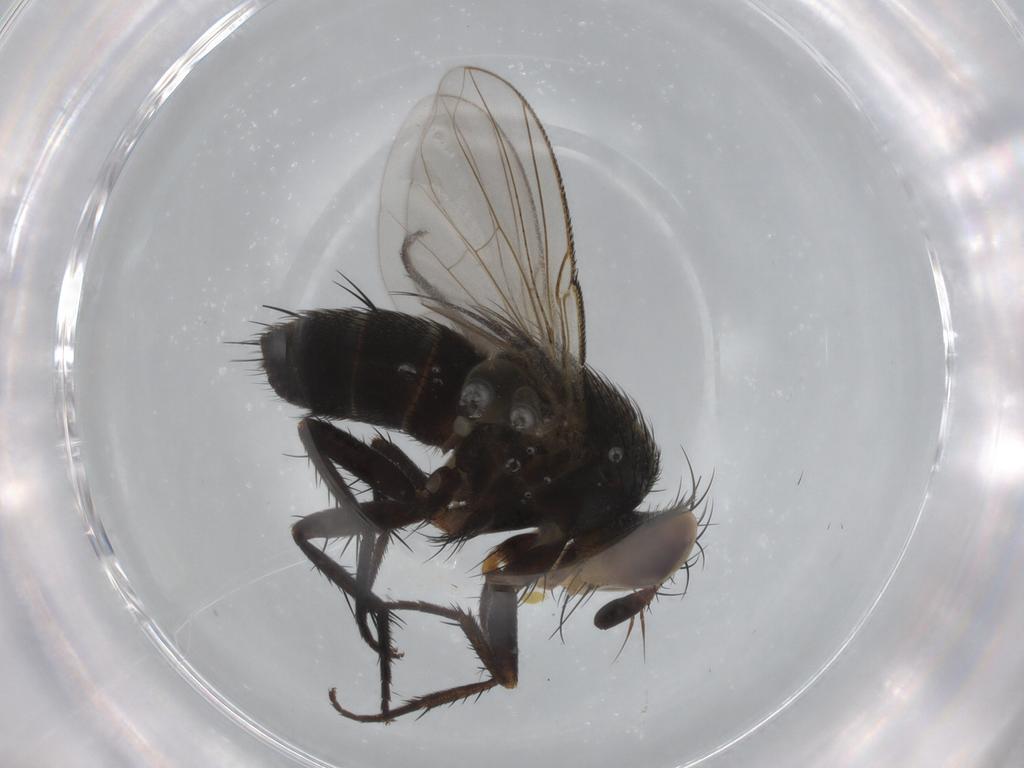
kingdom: Animalia
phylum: Arthropoda
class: Insecta
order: Diptera
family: Tachinidae
